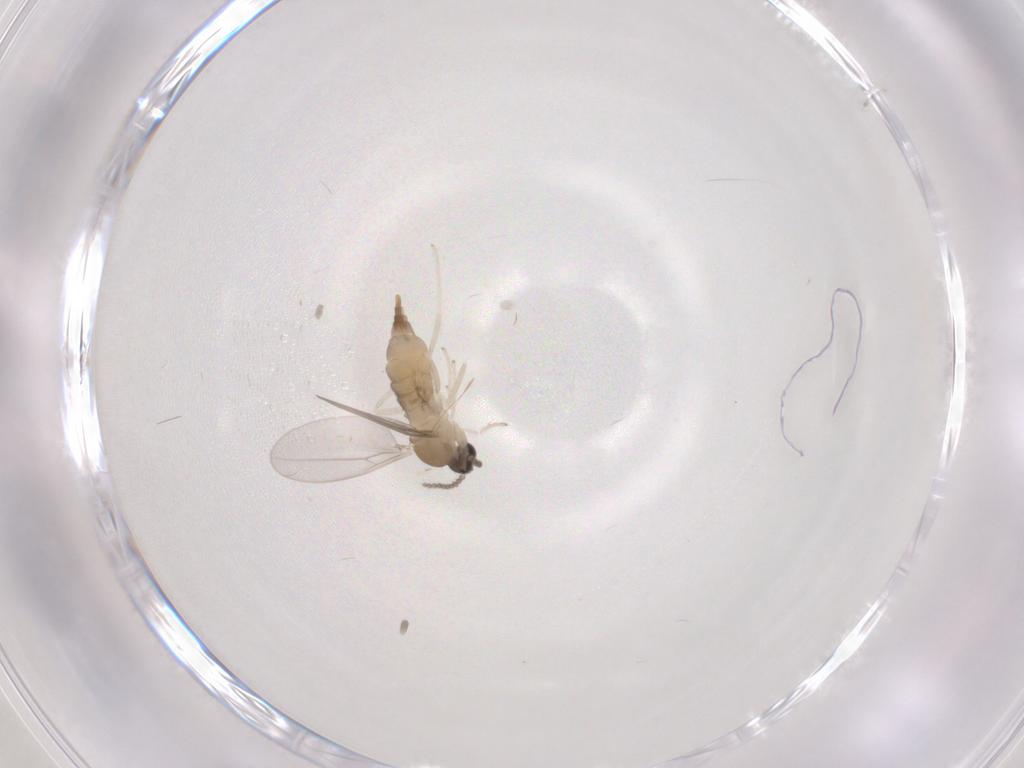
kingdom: Animalia
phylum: Arthropoda
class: Insecta
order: Diptera
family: Cecidomyiidae
